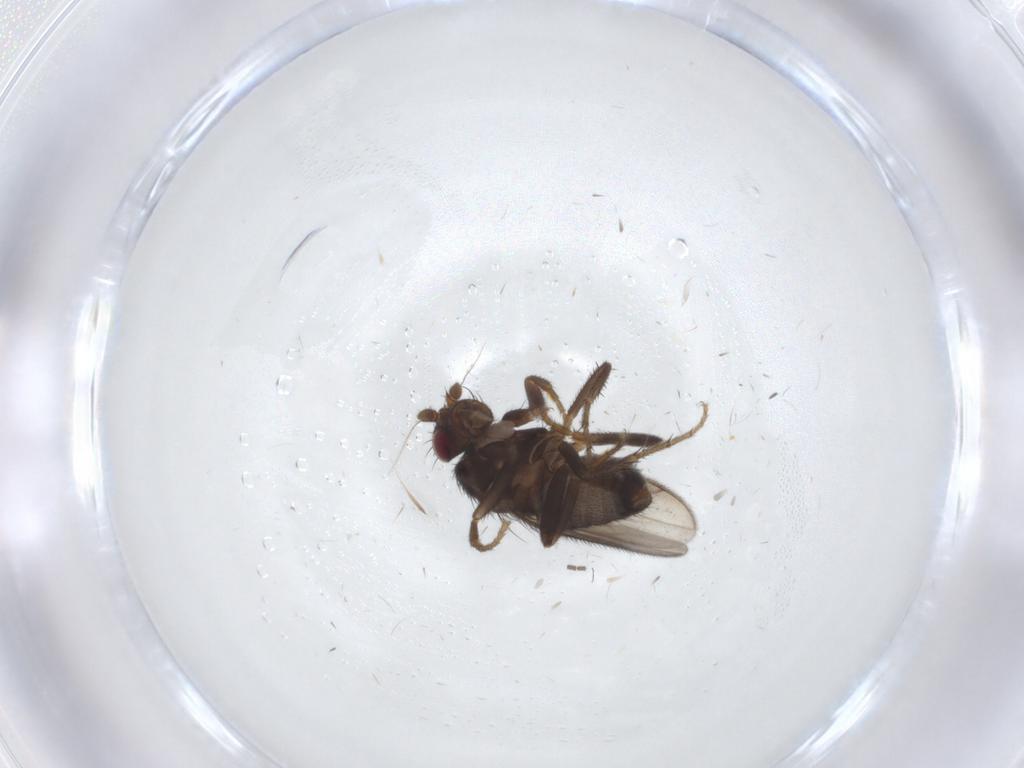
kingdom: Animalia
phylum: Arthropoda
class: Insecta
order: Diptera
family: Sphaeroceridae
